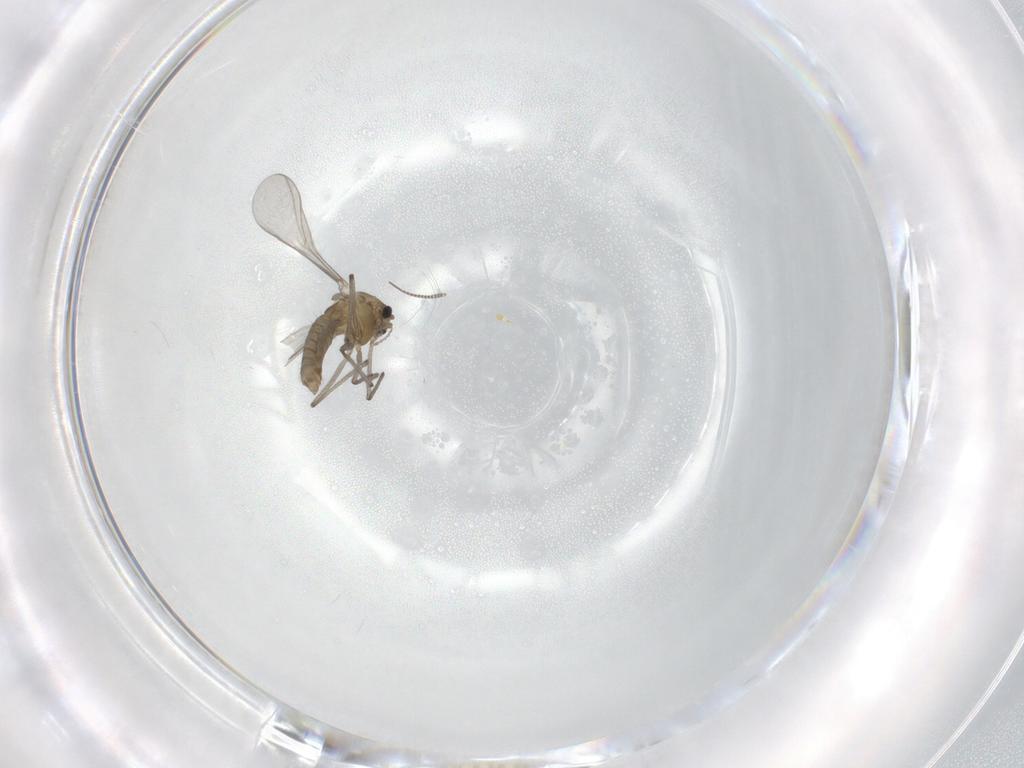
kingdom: Animalia
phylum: Arthropoda
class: Insecta
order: Diptera
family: Chironomidae
